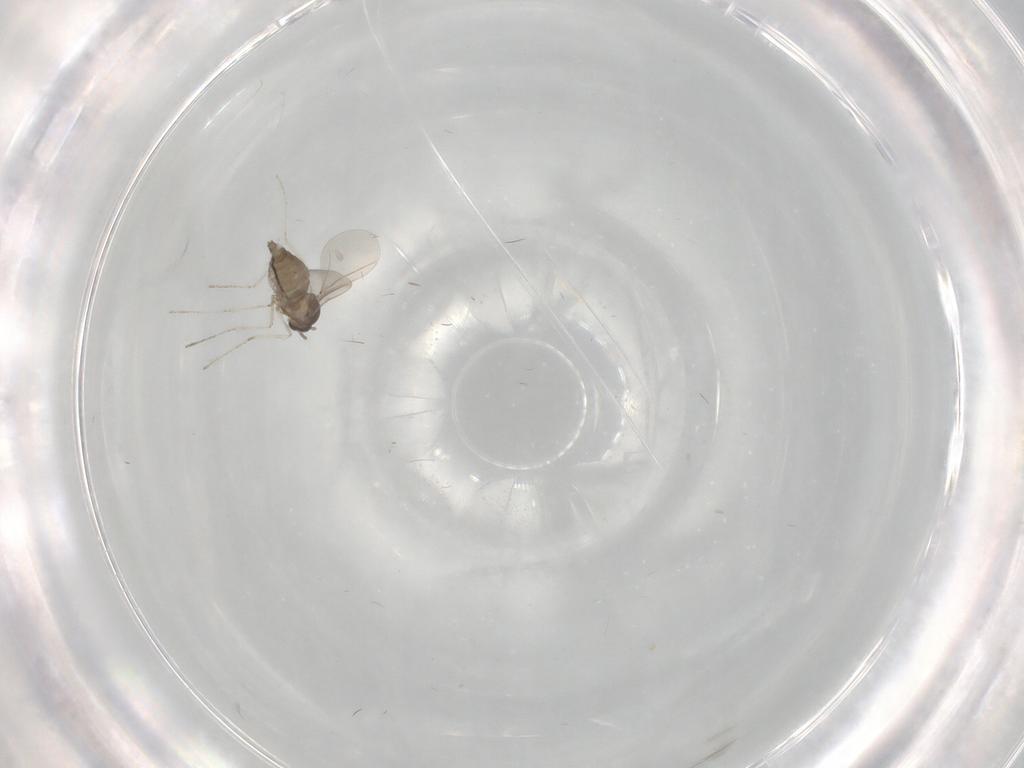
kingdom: Animalia
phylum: Arthropoda
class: Insecta
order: Diptera
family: Cecidomyiidae
